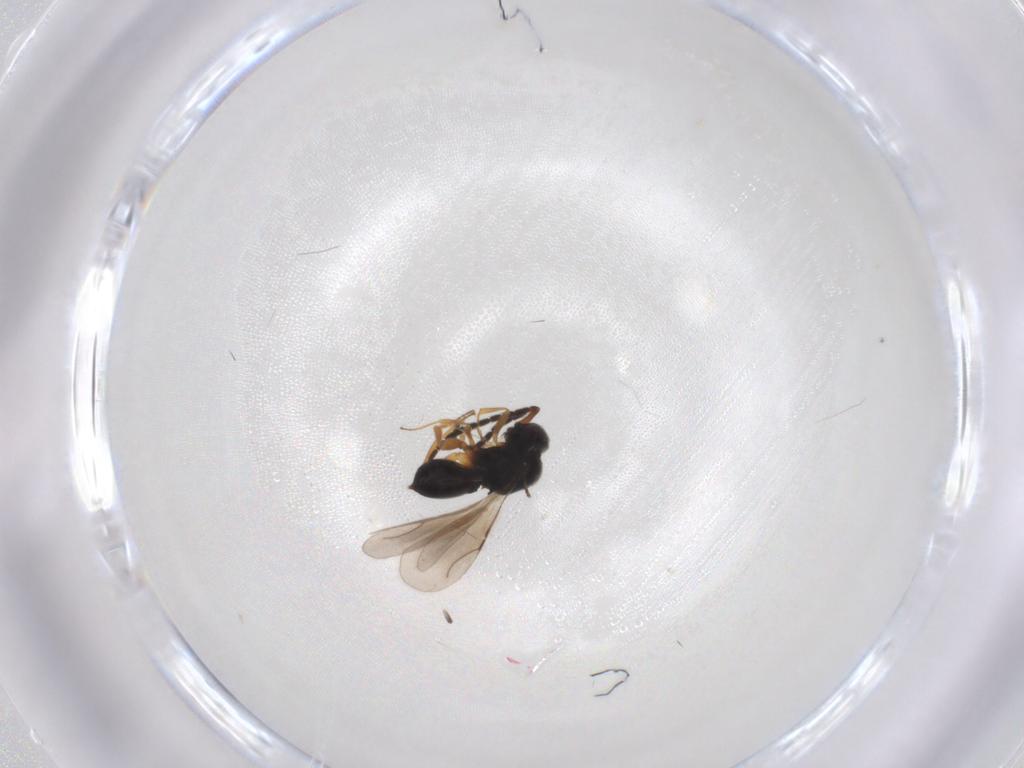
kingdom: Animalia
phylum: Arthropoda
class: Insecta
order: Hymenoptera
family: Ceraphronidae
